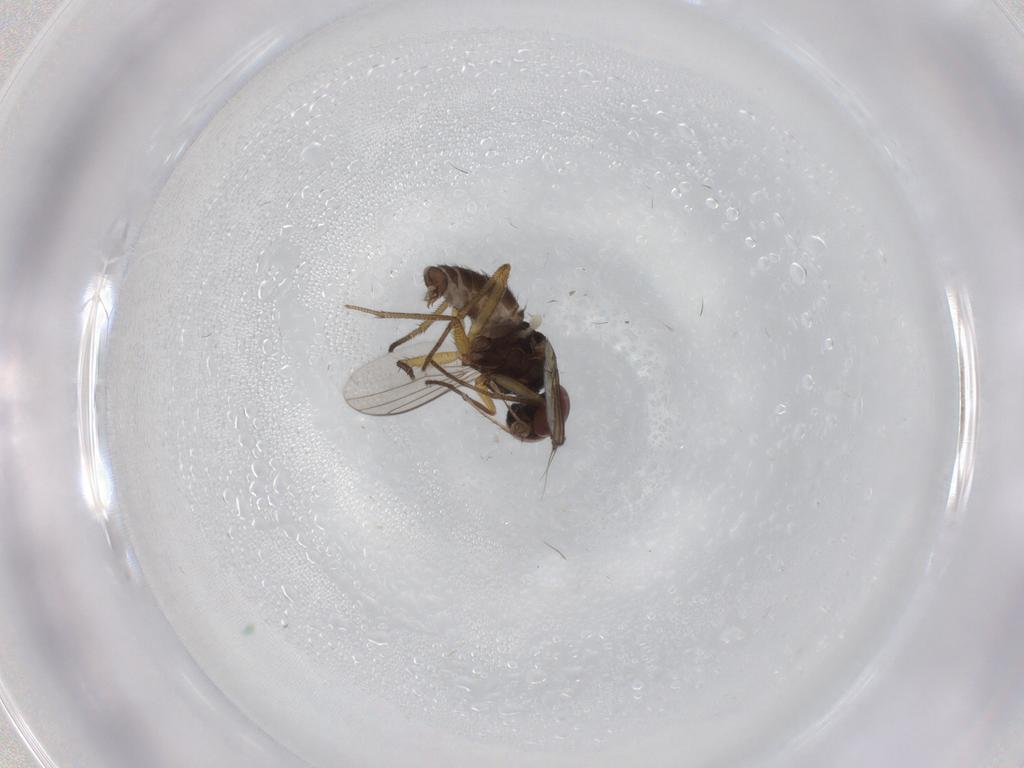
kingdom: Animalia
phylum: Arthropoda
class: Insecta
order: Diptera
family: Dolichopodidae
